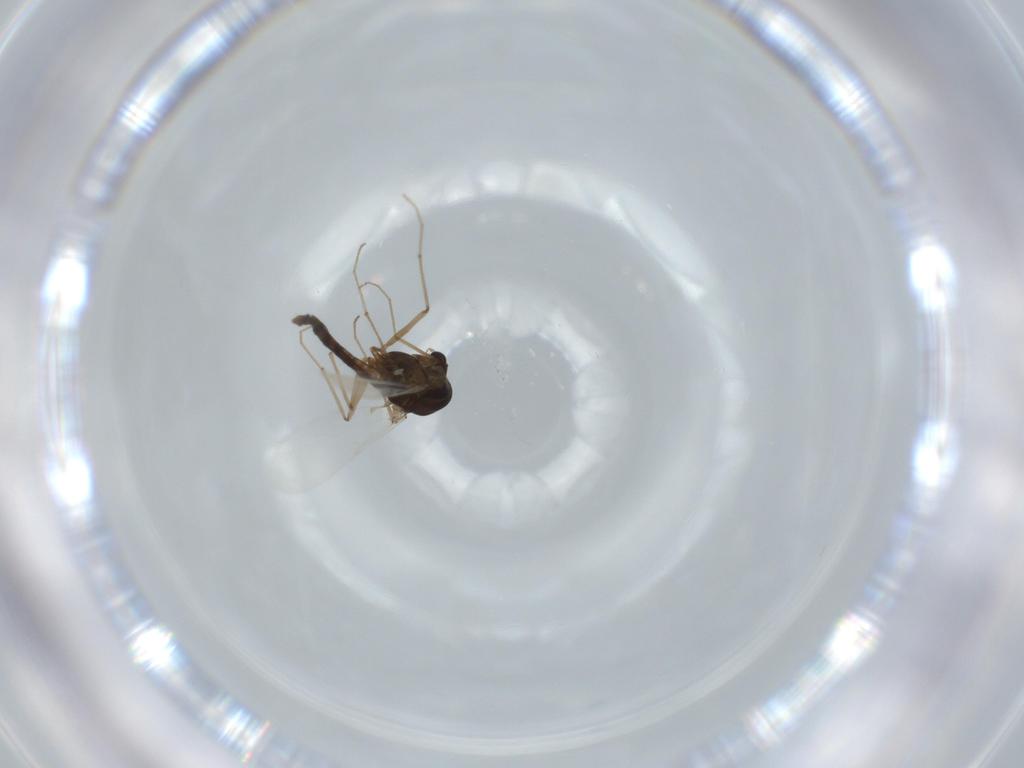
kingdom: Animalia
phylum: Arthropoda
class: Insecta
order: Diptera
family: Chironomidae
